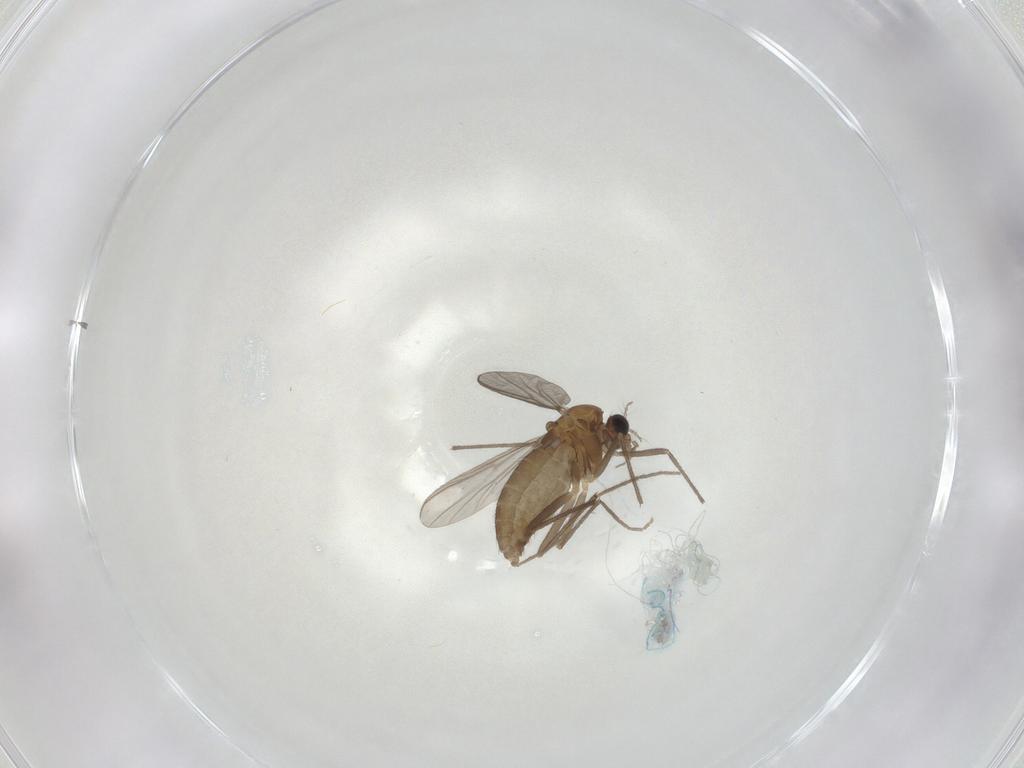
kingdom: Animalia
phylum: Arthropoda
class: Insecta
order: Diptera
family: Chironomidae
